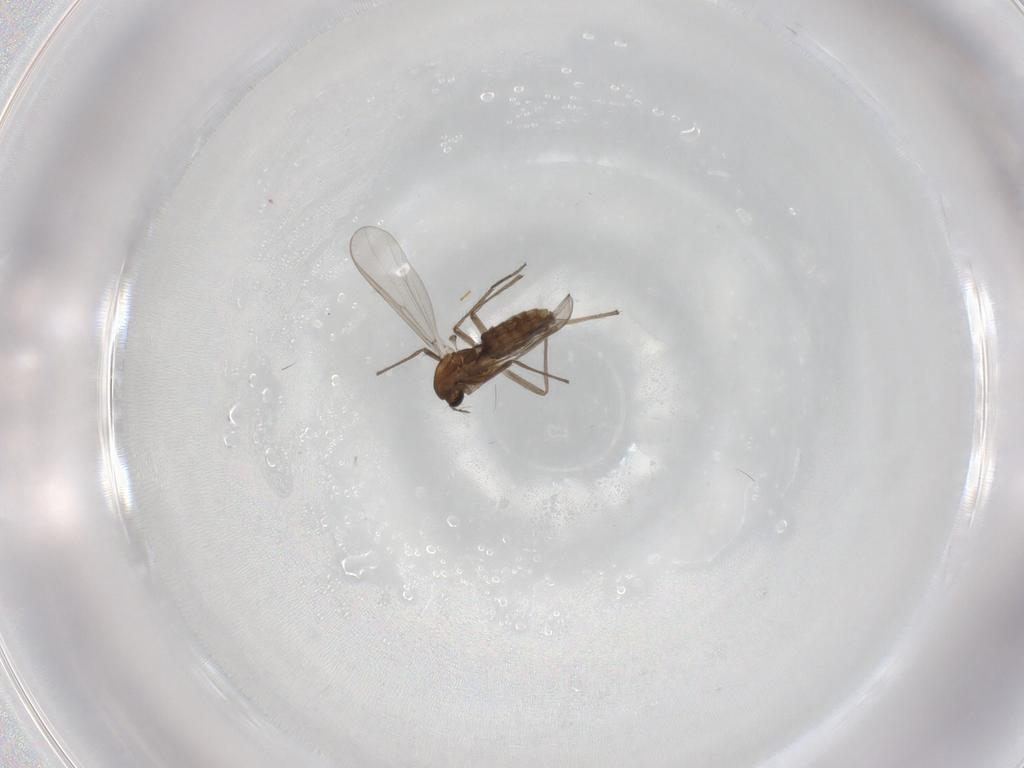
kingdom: Animalia
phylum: Arthropoda
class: Insecta
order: Diptera
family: Chironomidae
